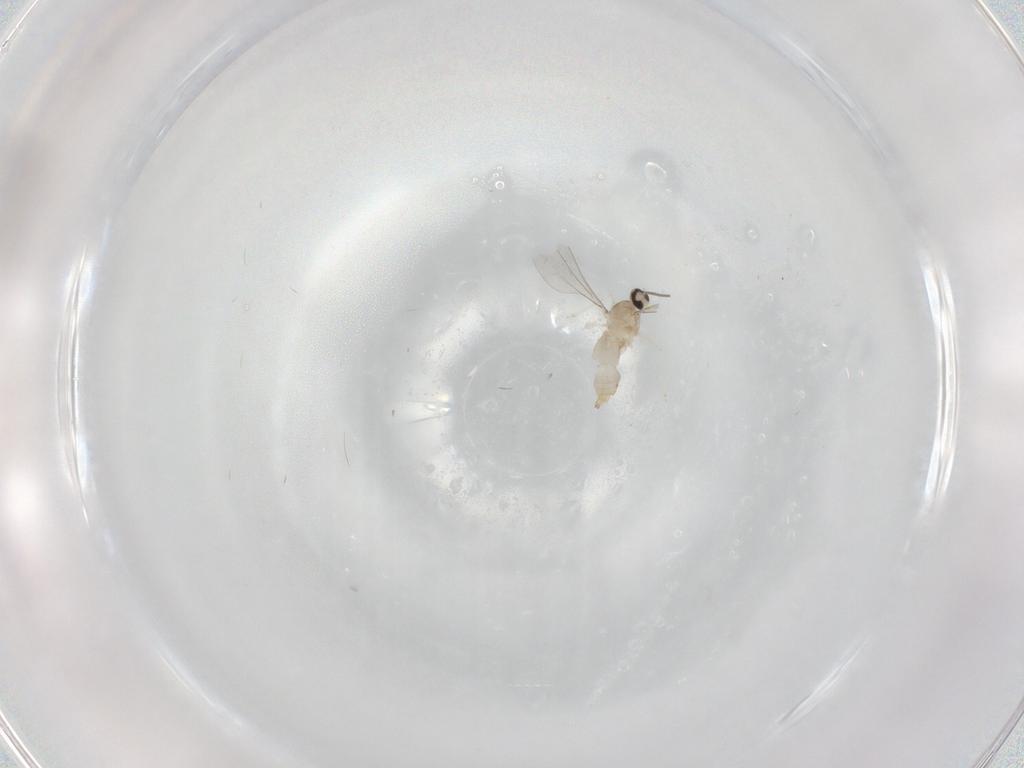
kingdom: Animalia
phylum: Arthropoda
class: Insecta
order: Diptera
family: Cecidomyiidae
